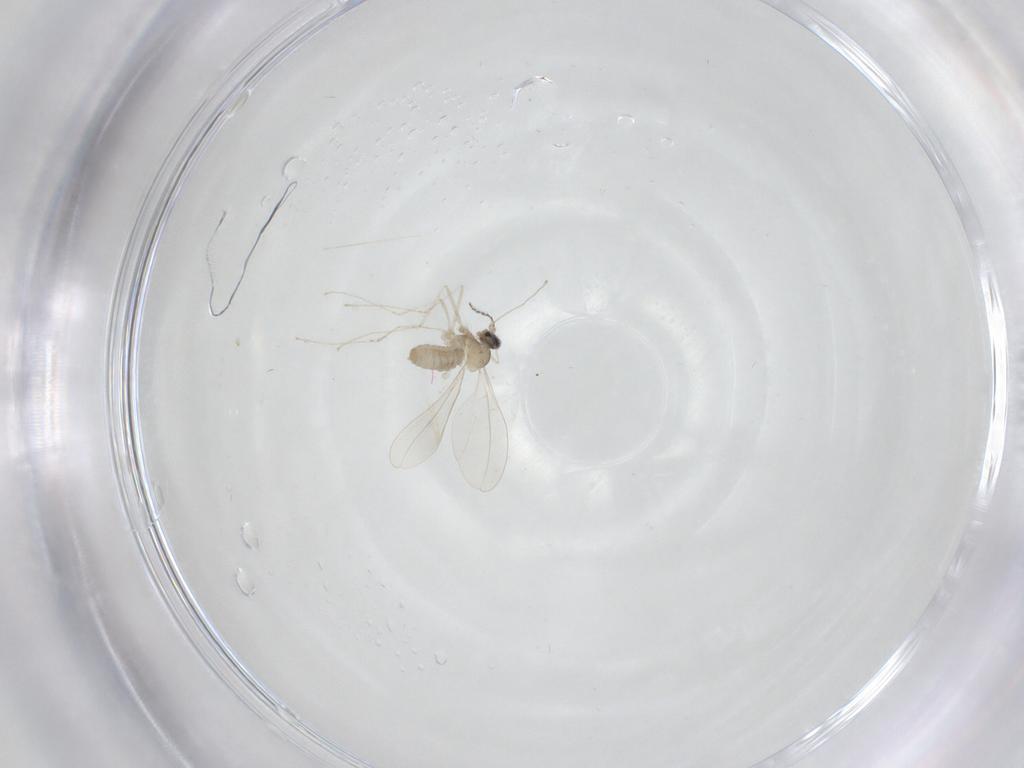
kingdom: Animalia
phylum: Arthropoda
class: Insecta
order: Diptera
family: Cecidomyiidae
